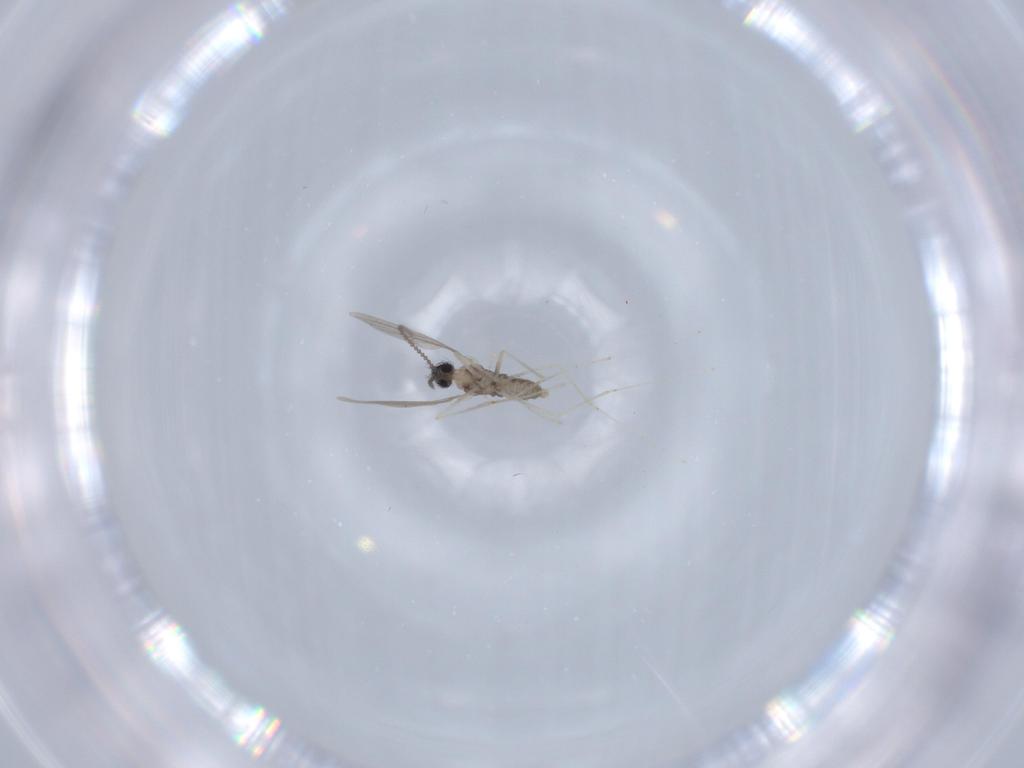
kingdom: Animalia
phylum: Arthropoda
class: Insecta
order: Diptera
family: Cecidomyiidae
